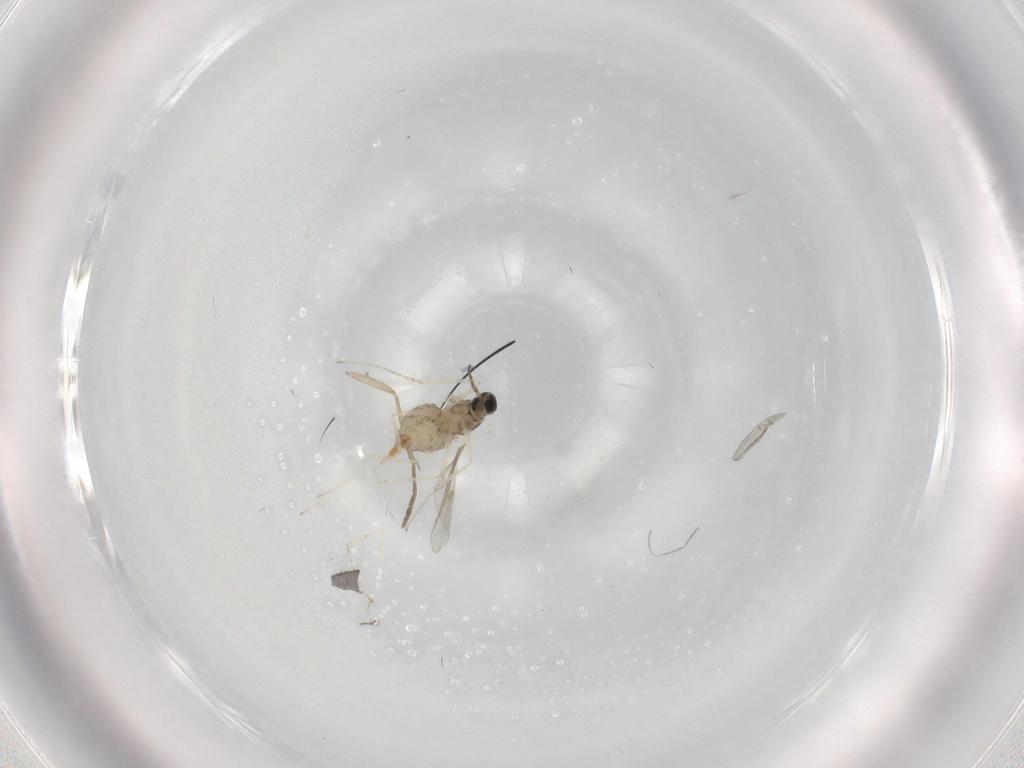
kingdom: Animalia
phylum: Arthropoda
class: Insecta
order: Diptera
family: Cecidomyiidae
